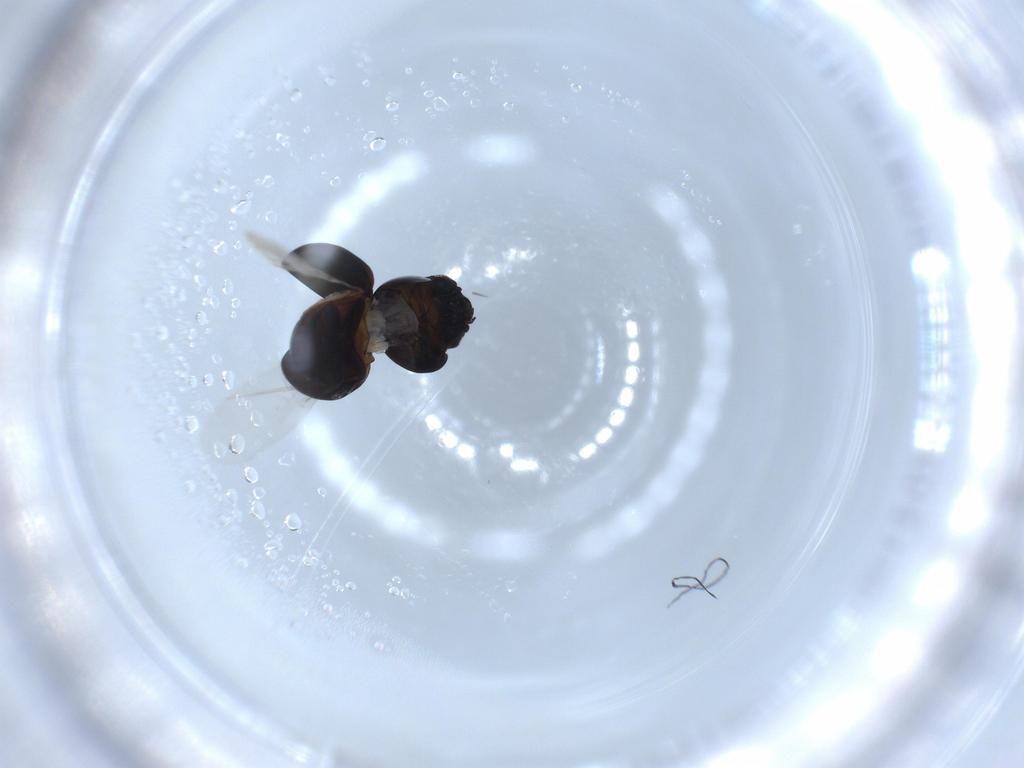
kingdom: Animalia
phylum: Arthropoda
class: Insecta
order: Coleoptera
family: Cybocephalidae
